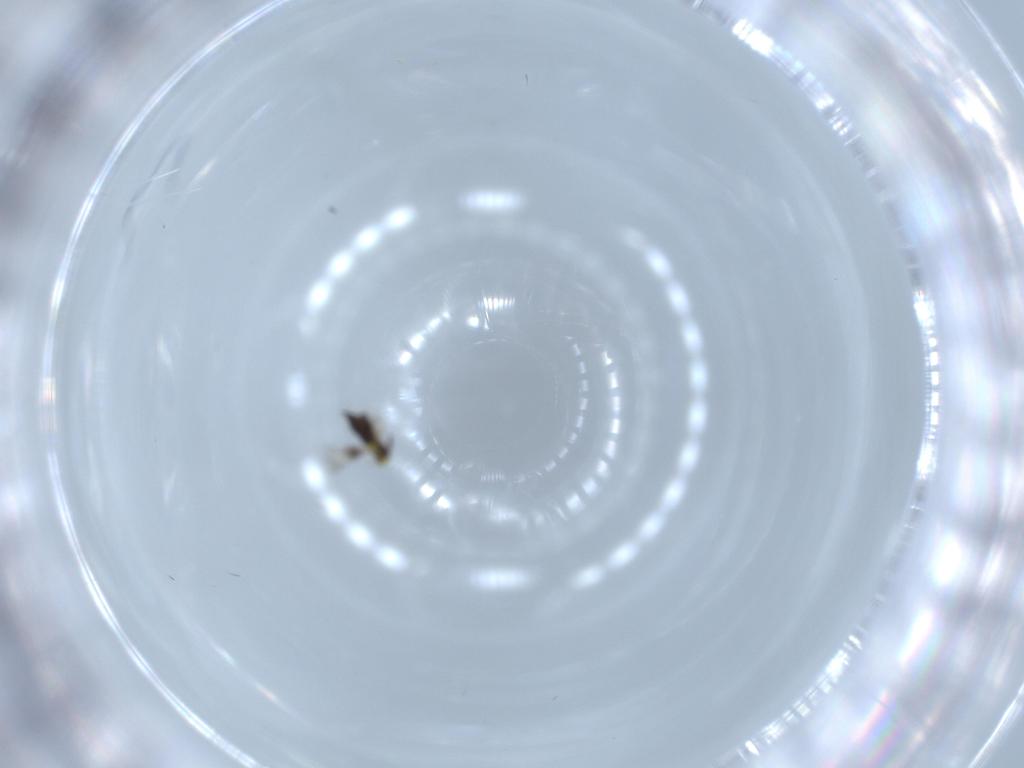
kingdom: Animalia
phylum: Arthropoda
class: Insecta
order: Hymenoptera
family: Signiphoridae
